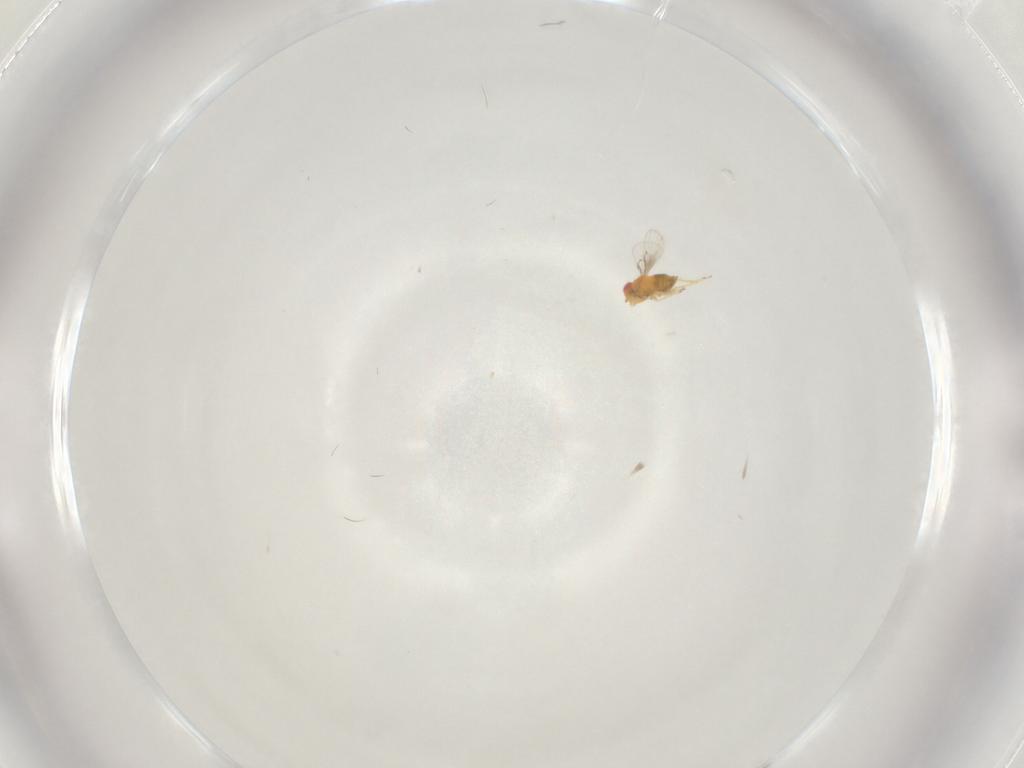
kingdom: Animalia
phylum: Arthropoda
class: Insecta
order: Hymenoptera
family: Trichogrammatidae
